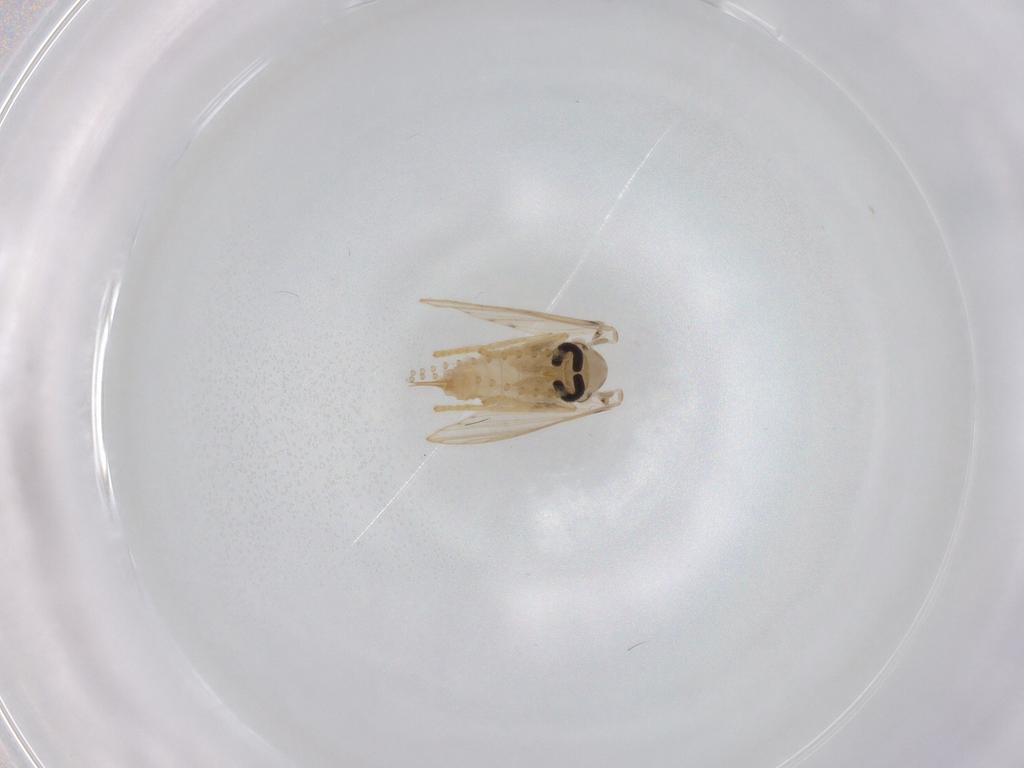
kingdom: Animalia
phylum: Arthropoda
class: Insecta
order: Diptera
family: Psychodidae
